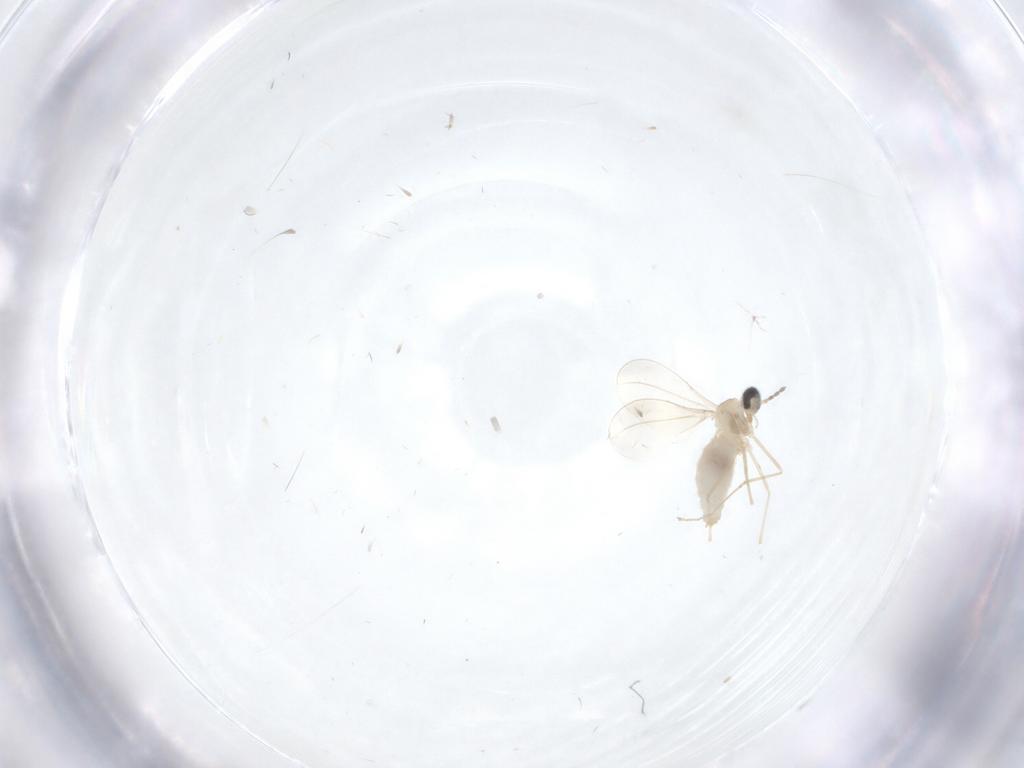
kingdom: Animalia
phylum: Arthropoda
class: Insecta
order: Diptera
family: Cecidomyiidae
